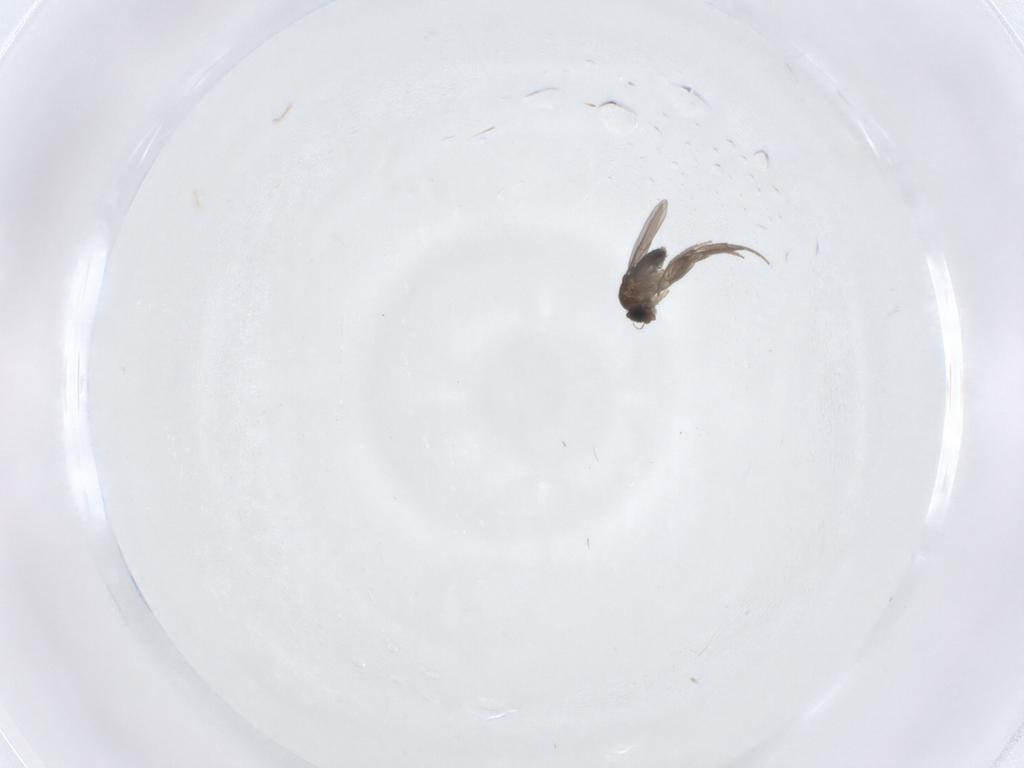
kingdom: Animalia
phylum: Arthropoda
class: Insecta
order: Diptera
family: Phoridae
